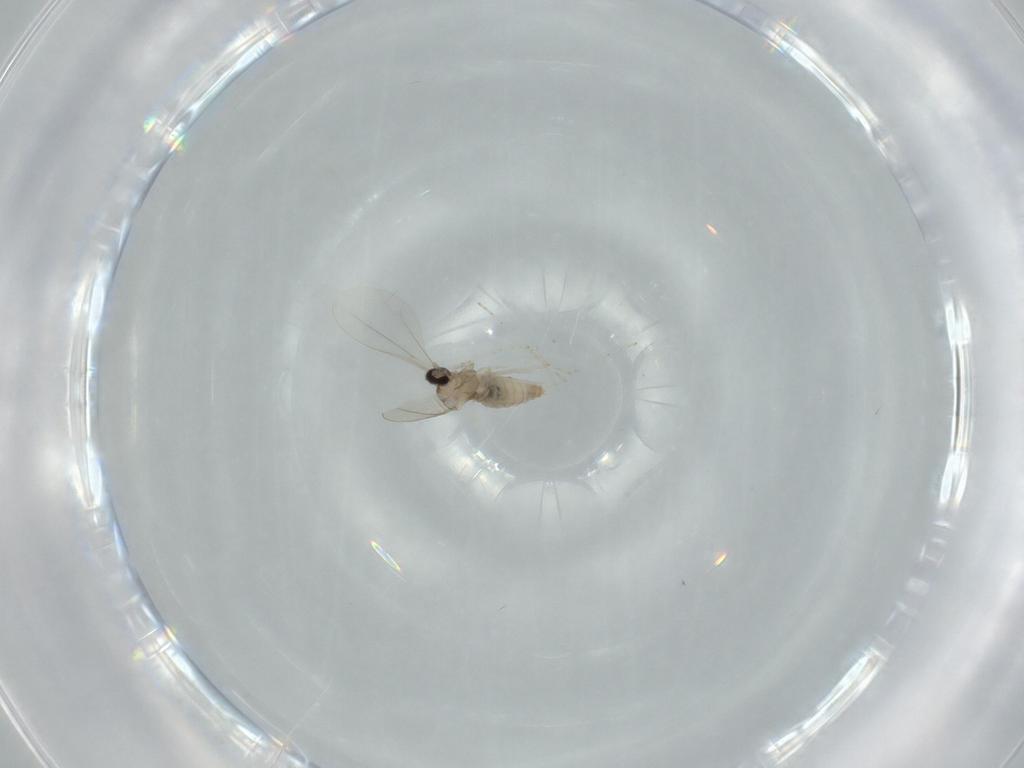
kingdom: Animalia
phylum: Arthropoda
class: Insecta
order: Diptera
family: Cecidomyiidae
